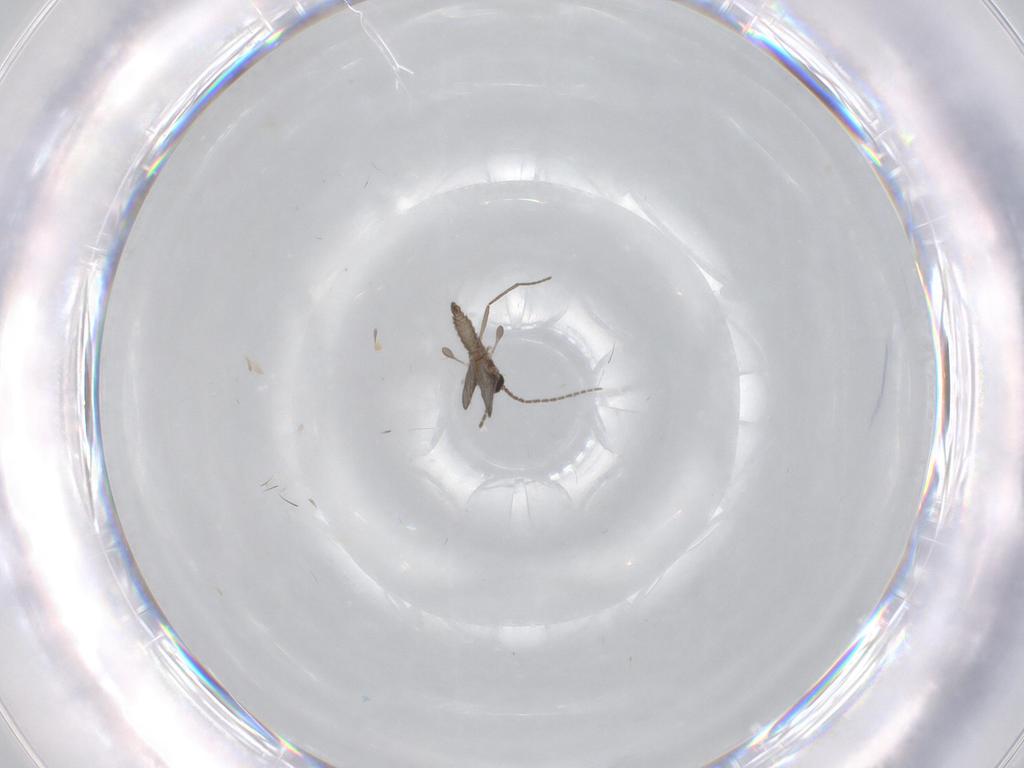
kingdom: Animalia
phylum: Arthropoda
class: Insecta
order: Diptera
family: Sciaridae
